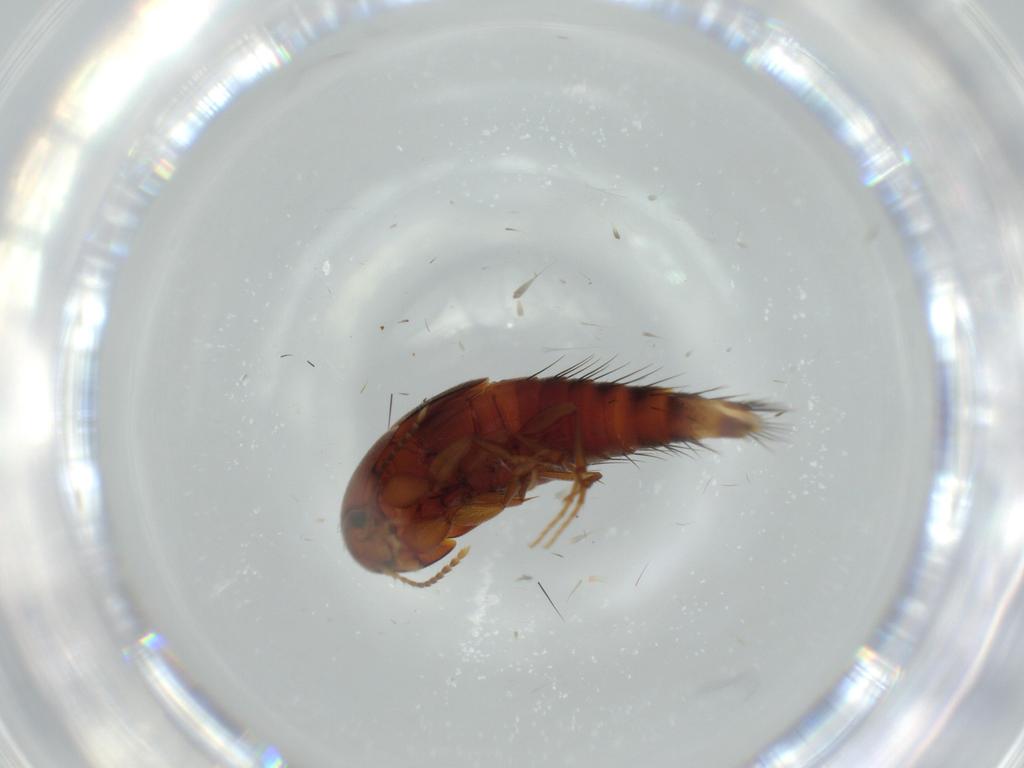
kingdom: Animalia
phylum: Arthropoda
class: Insecta
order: Coleoptera
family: Staphylinidae
